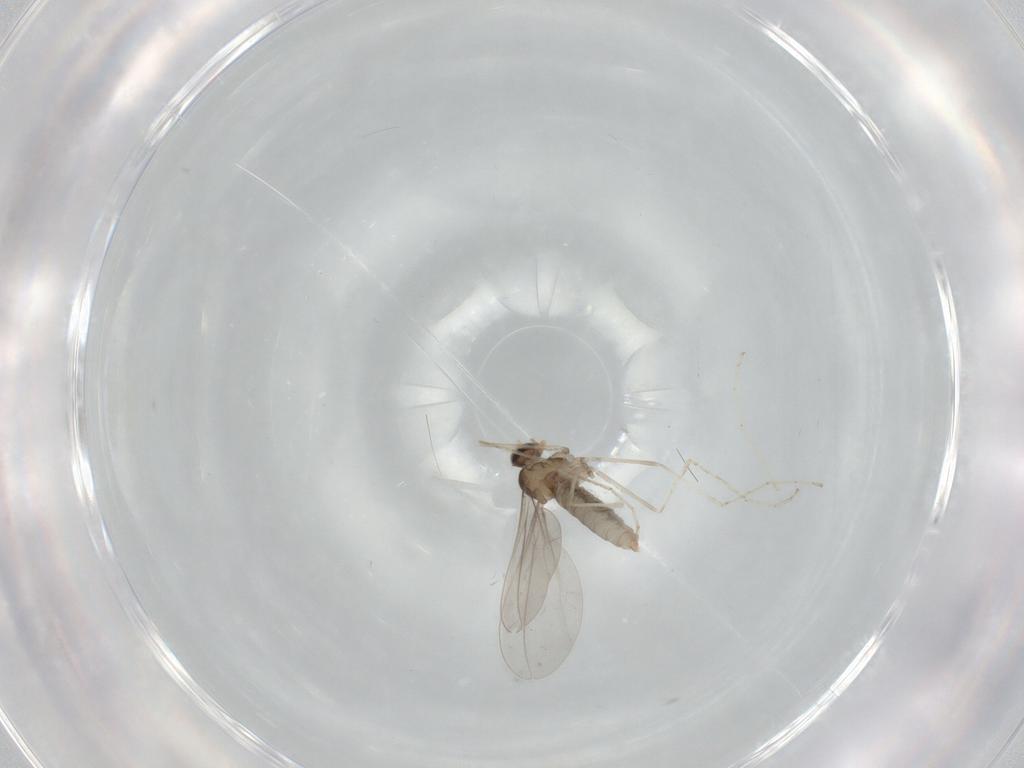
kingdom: Animalia
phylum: Arthropoda
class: Insecta
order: Diptera
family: Cecidomyiidae
